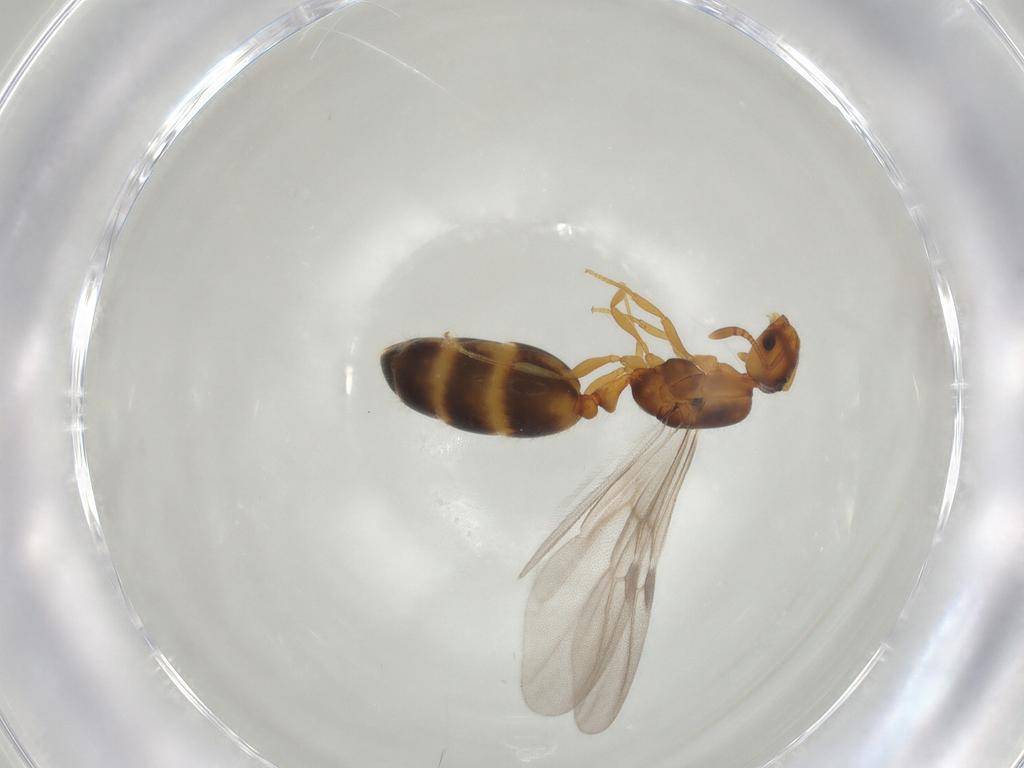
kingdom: Animalia
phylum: Arthropoda
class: Insecta
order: Hymenoptera
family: Formicidae
